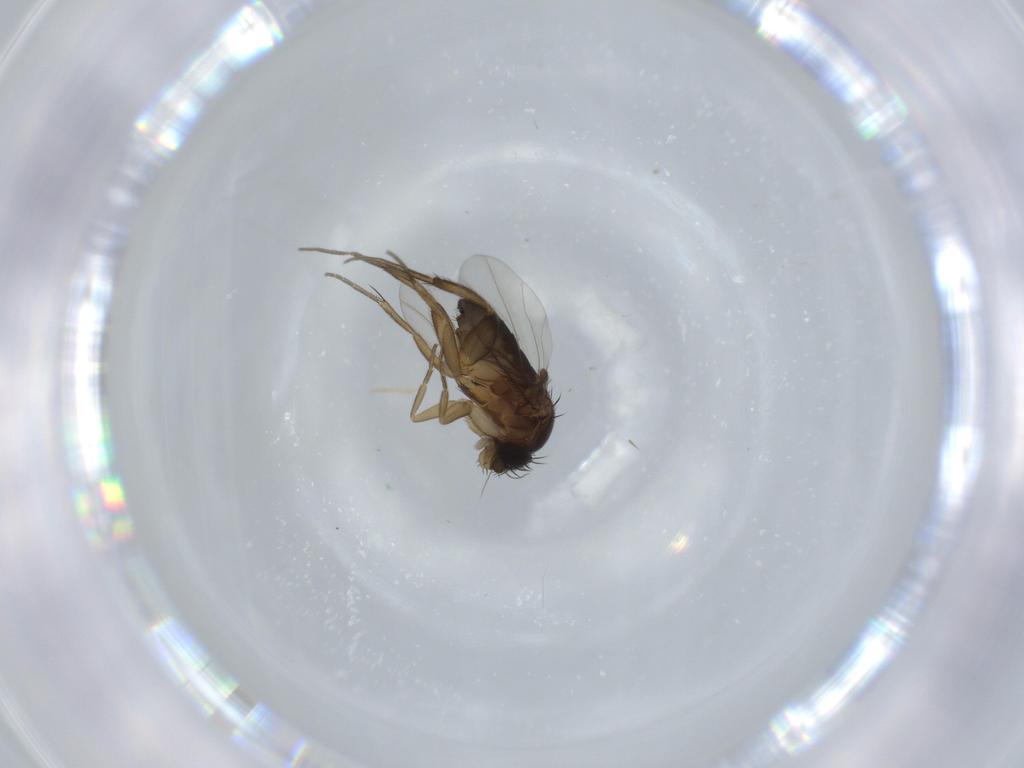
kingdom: Animalia
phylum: Arthropoda
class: Insecta
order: Diptera
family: Phoridae
